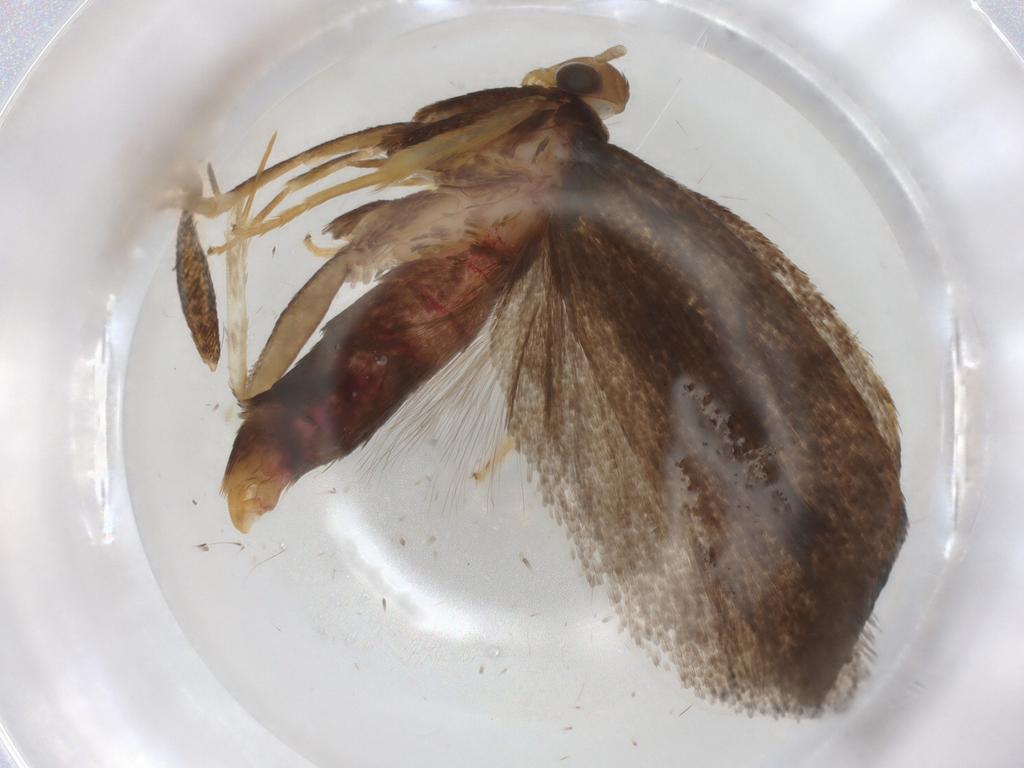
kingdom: Animalia
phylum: Arthropoda
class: Insecta
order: Lepidoptera
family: Lecithoceridae
